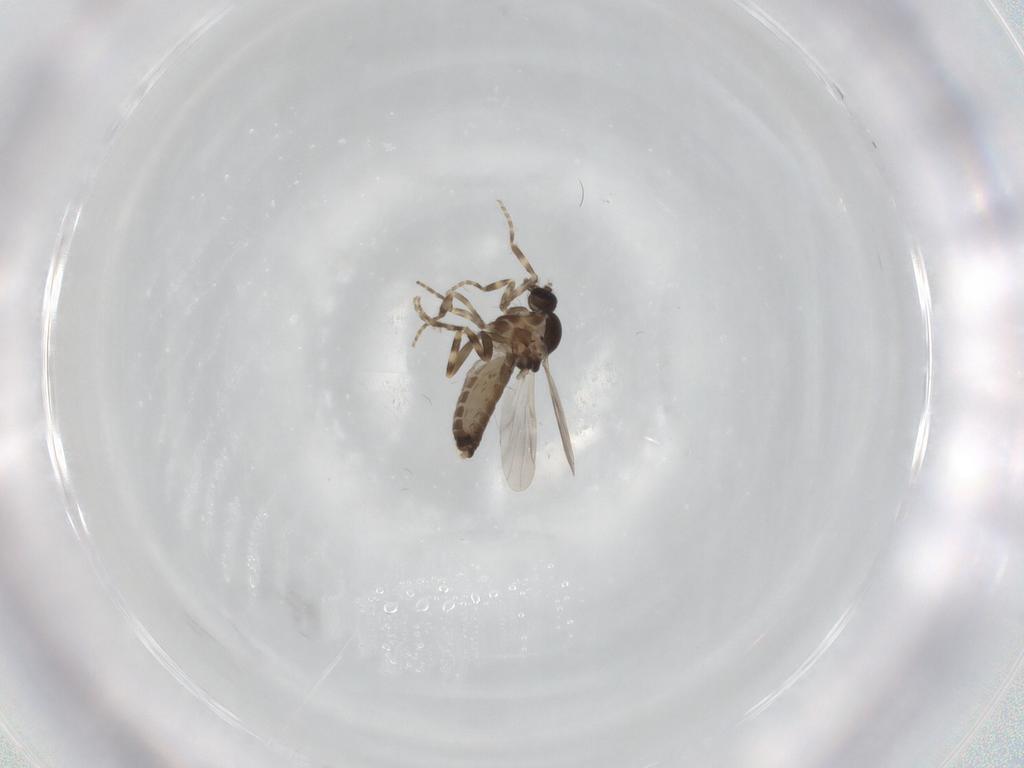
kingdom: Animalia
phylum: Arthropoda
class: Insecta
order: Diptera
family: Ceratopogonidae
